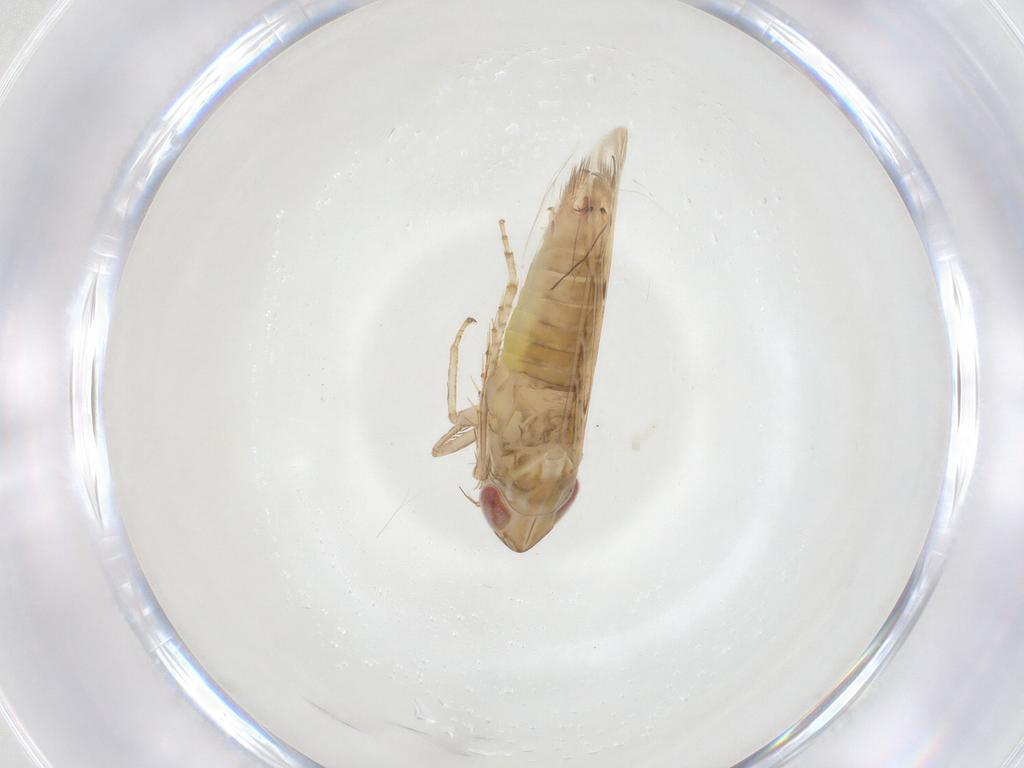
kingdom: Animalia
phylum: Arthropoda
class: Insecta
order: Hemiptera
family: Cicadellidae
